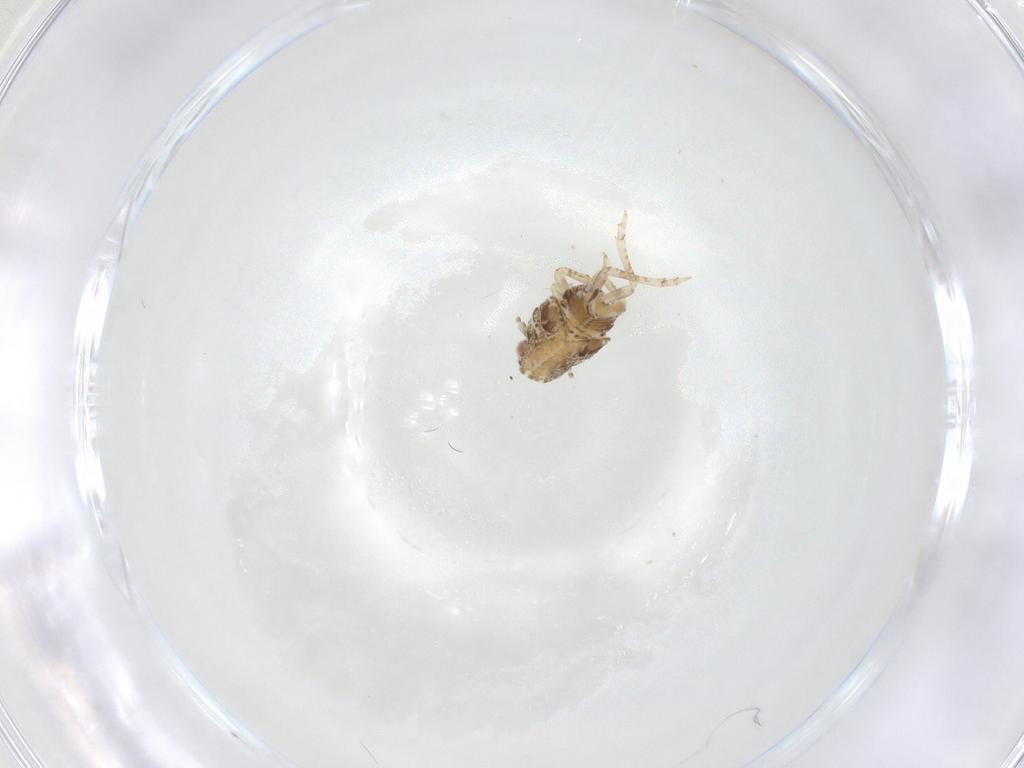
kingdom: Animalia
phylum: Arthropoda
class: Insecta
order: Hemiptera
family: Flatidae
